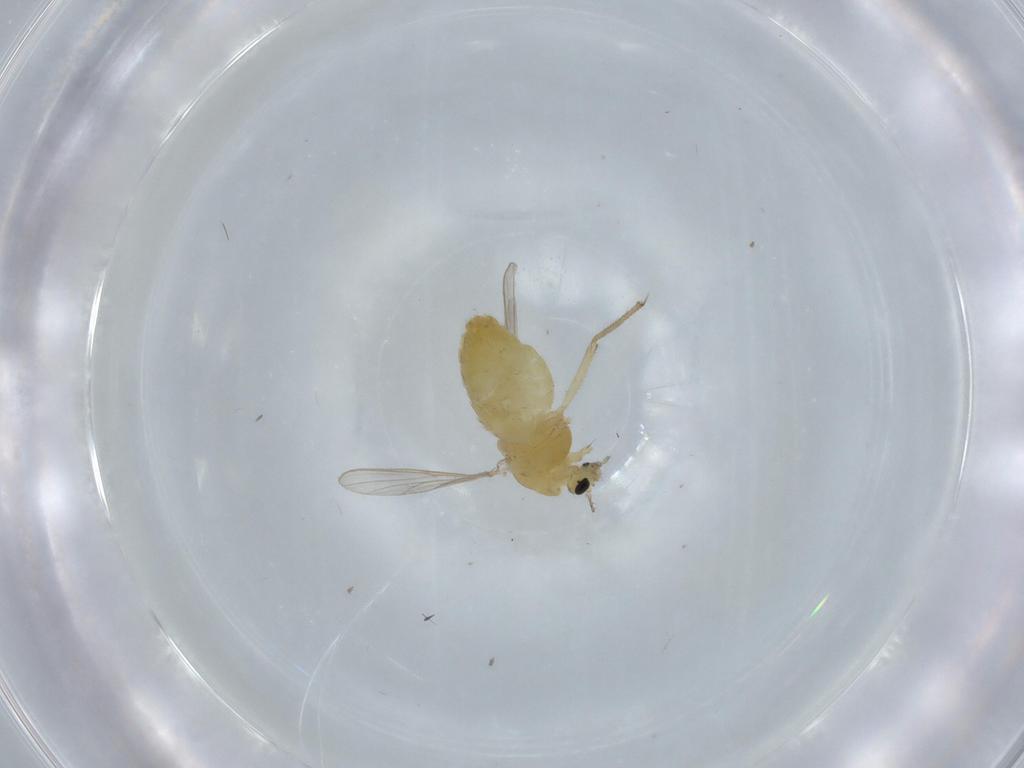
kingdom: Animalia
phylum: Arthropoda
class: Insecta
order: Diptera
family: Chironomidae
